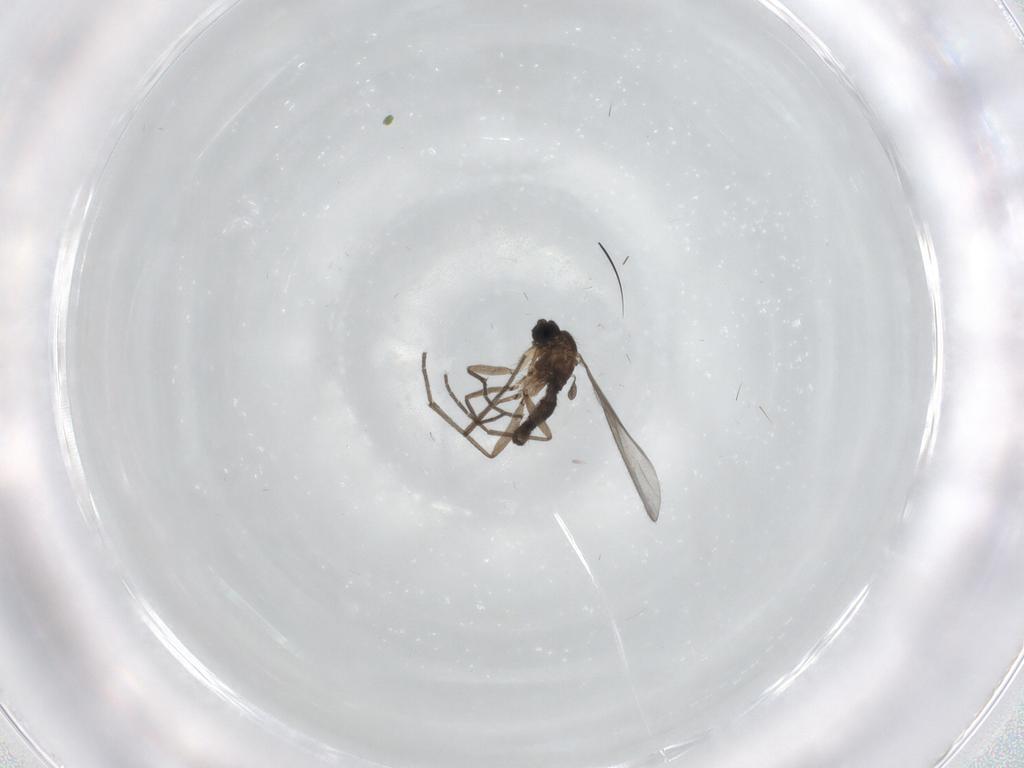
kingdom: Animalia
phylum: Arthropoda
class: Insecta
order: Diptera
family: Sciaridae
